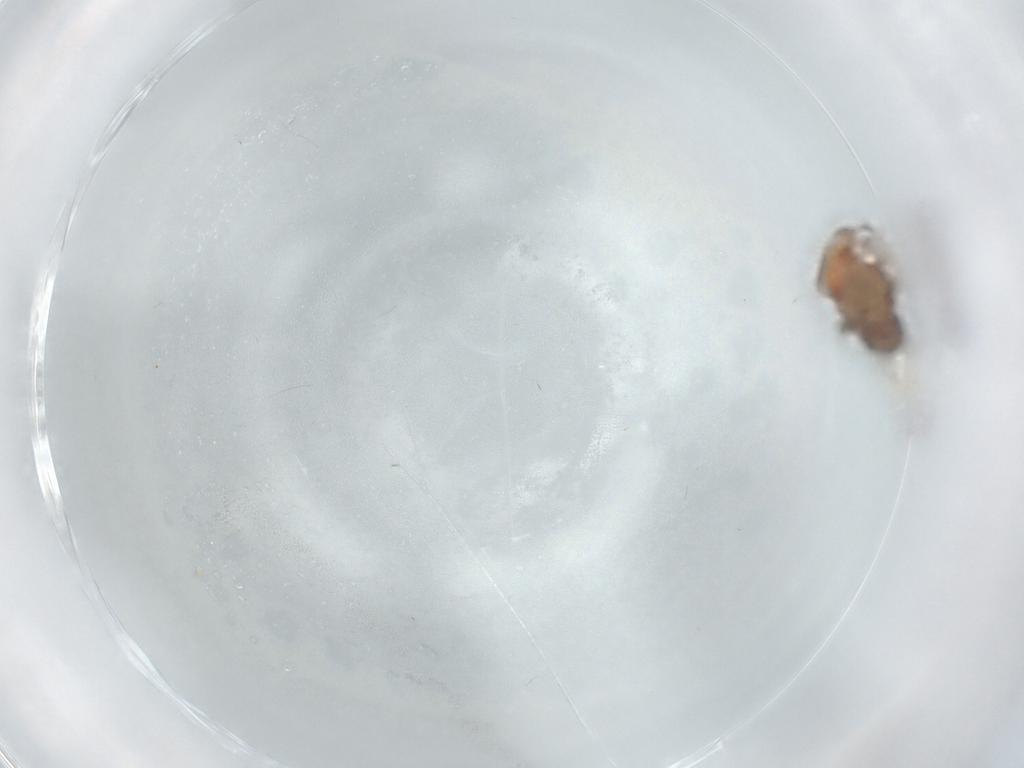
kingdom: Animalia
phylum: Arthropoda
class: Insecta
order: Hemiptera
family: Rhyparochromidae
